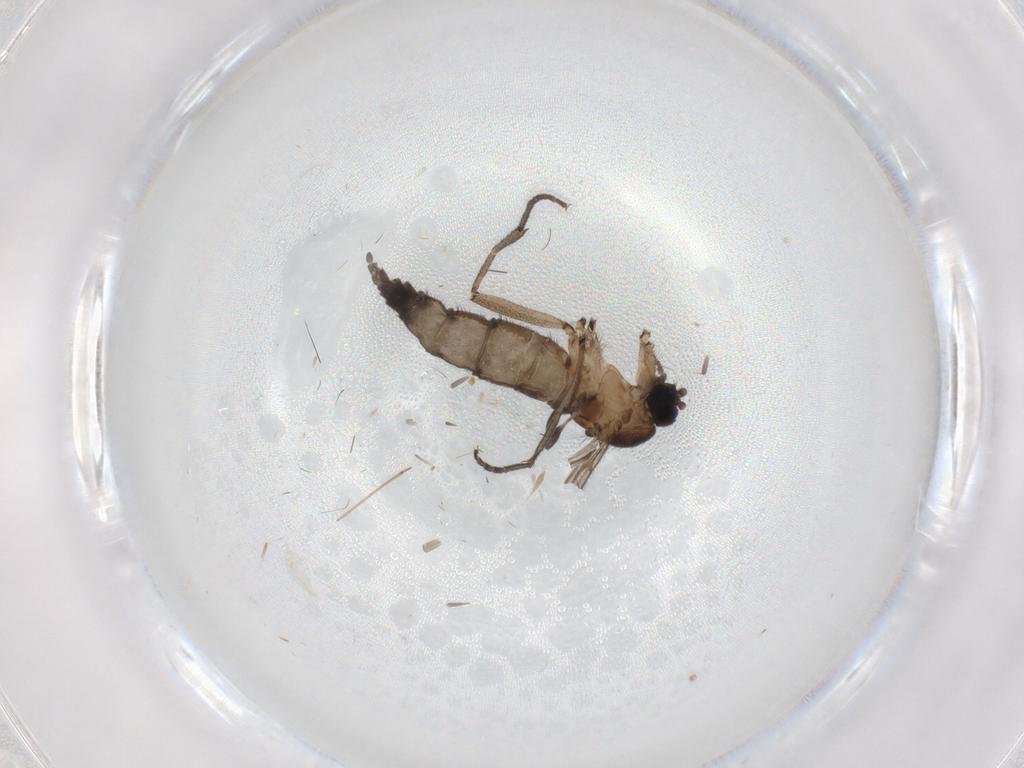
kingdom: Animalia
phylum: Arthropoda
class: Insecta
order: Diptera
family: Sciaridae
